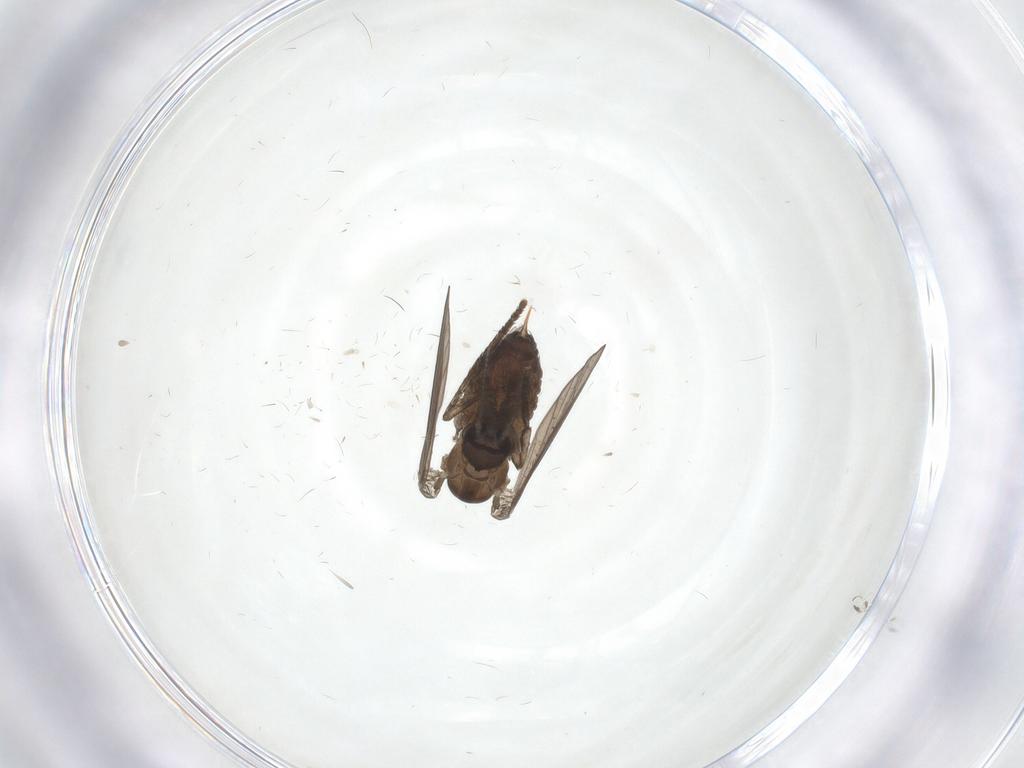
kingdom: Animalia
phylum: Arthropoda
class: Insecta
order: Diptera
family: Psychodidae
